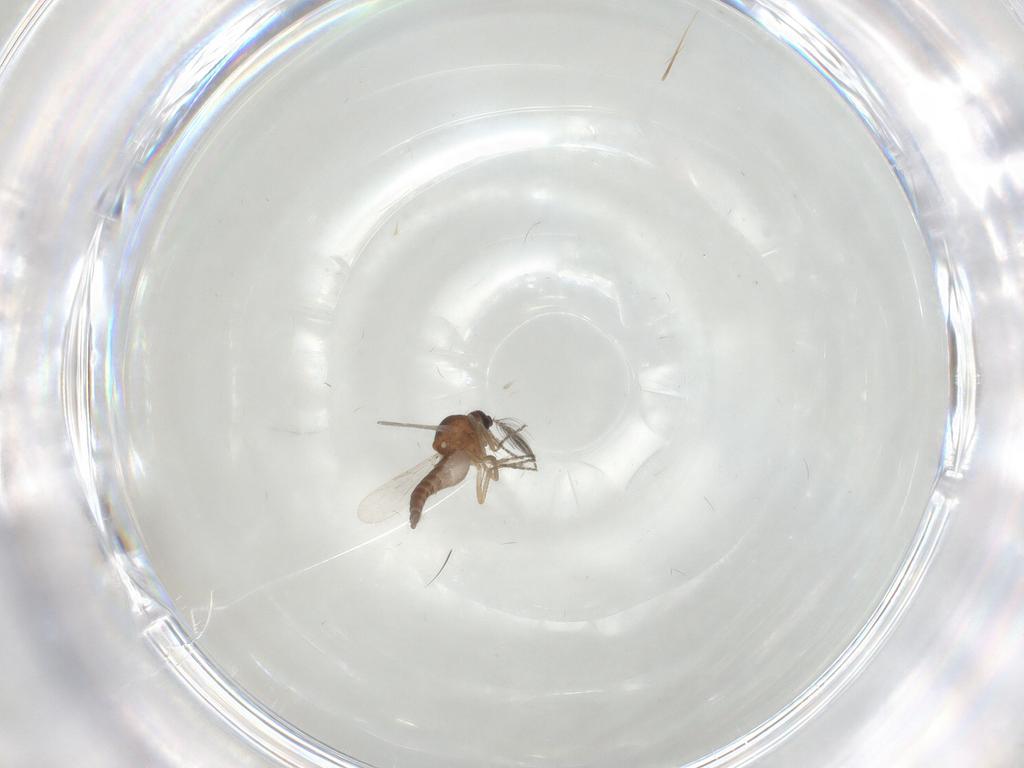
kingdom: Animalia
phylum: Arthropoda
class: Insecta
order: Diptera
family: Ceratopogonidae
